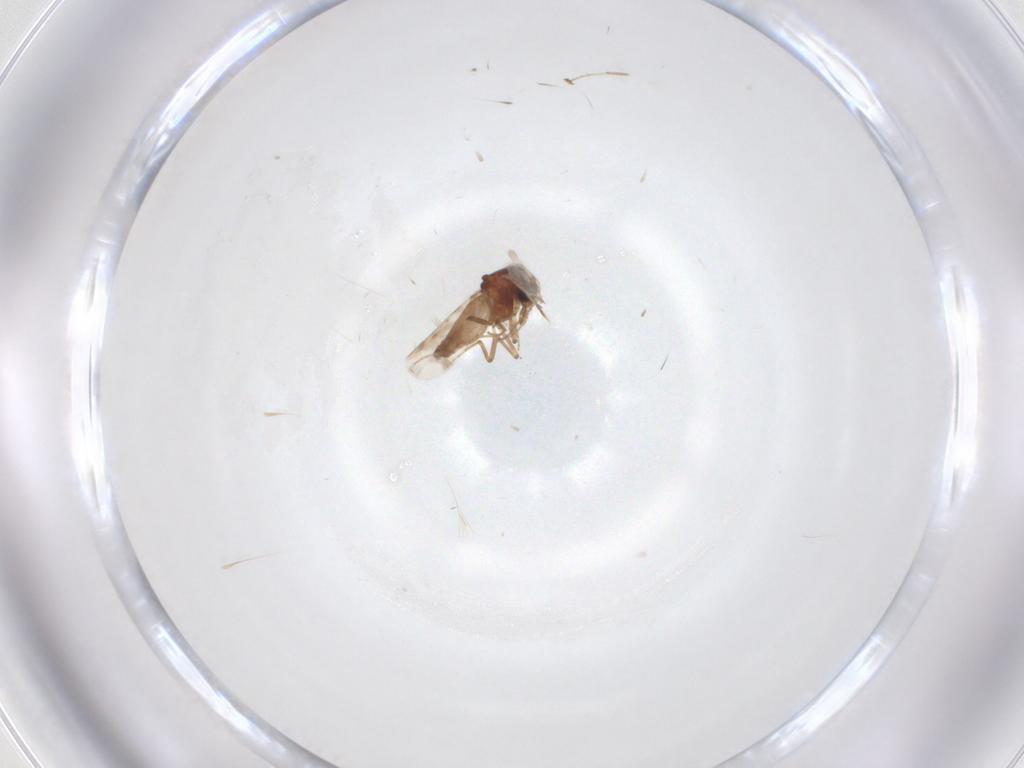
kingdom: Animalia
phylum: Arthropoda
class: Insecta
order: Diptera
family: Ceratopogonidae
